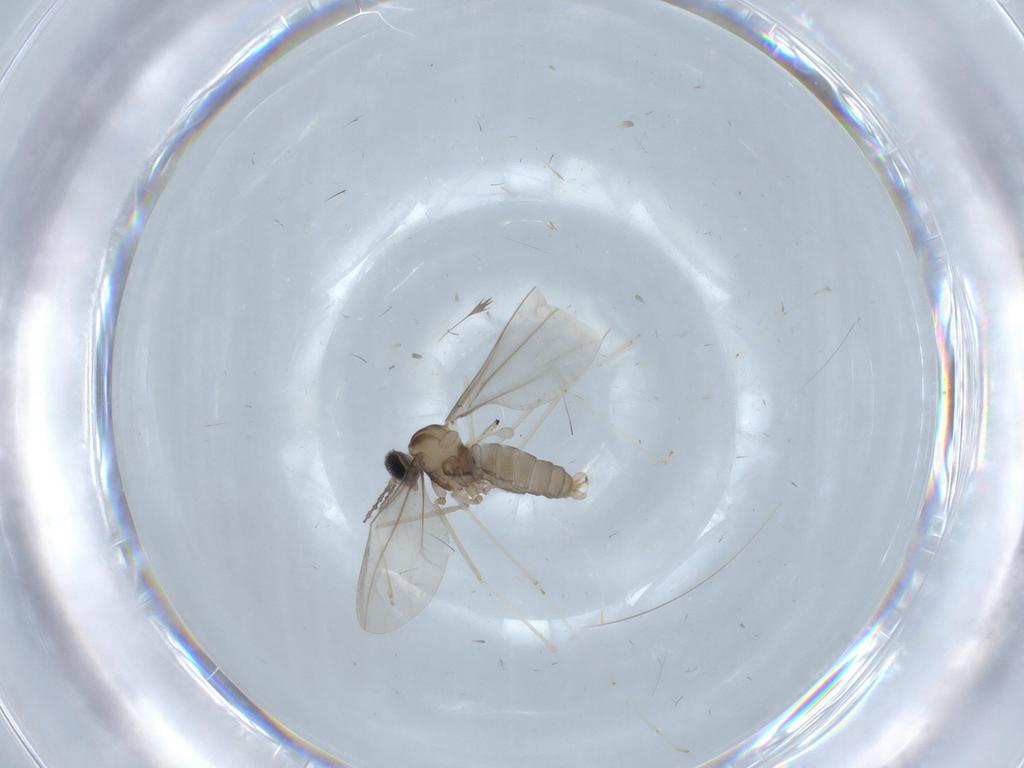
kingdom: Animalia
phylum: Arthropoda
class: Insecta
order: Diptera
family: Cecidomyiidae
